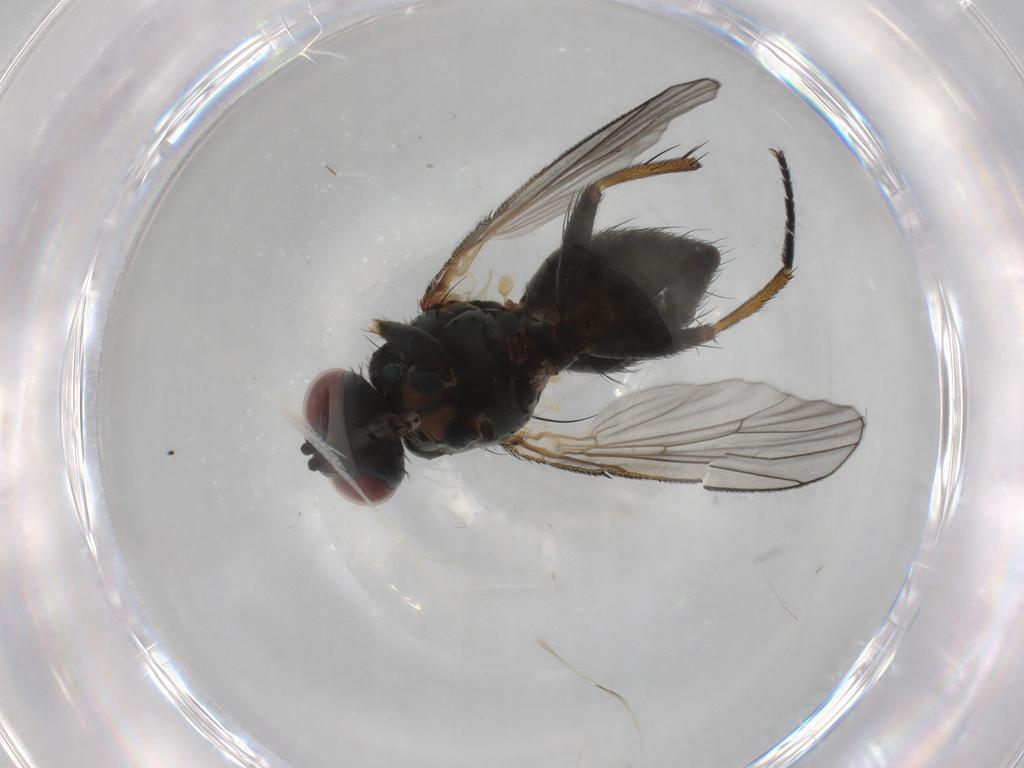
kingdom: Animalia
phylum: Arthropoda
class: Insecta
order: Diptera
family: Muscidae
